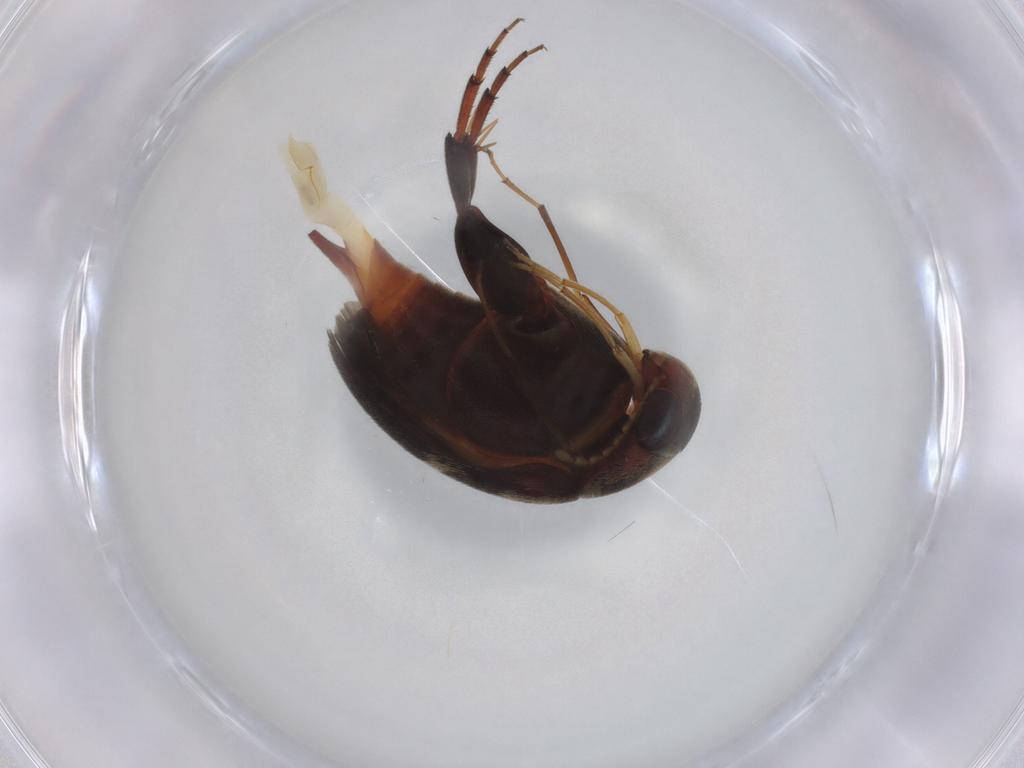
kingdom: Animalia
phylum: Arthropoda
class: Insecta
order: Coleoptera
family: Mordellidae
